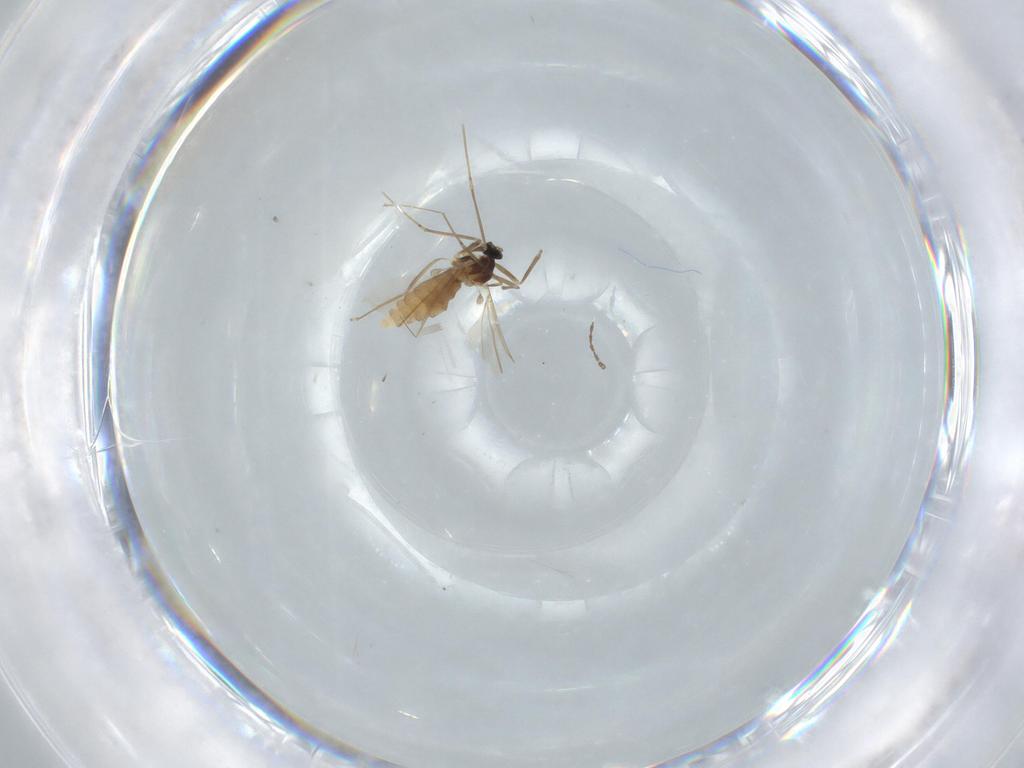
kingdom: Animalia
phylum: Arthropoda
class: Insecta
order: Diptera
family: Cecidomyiidae
